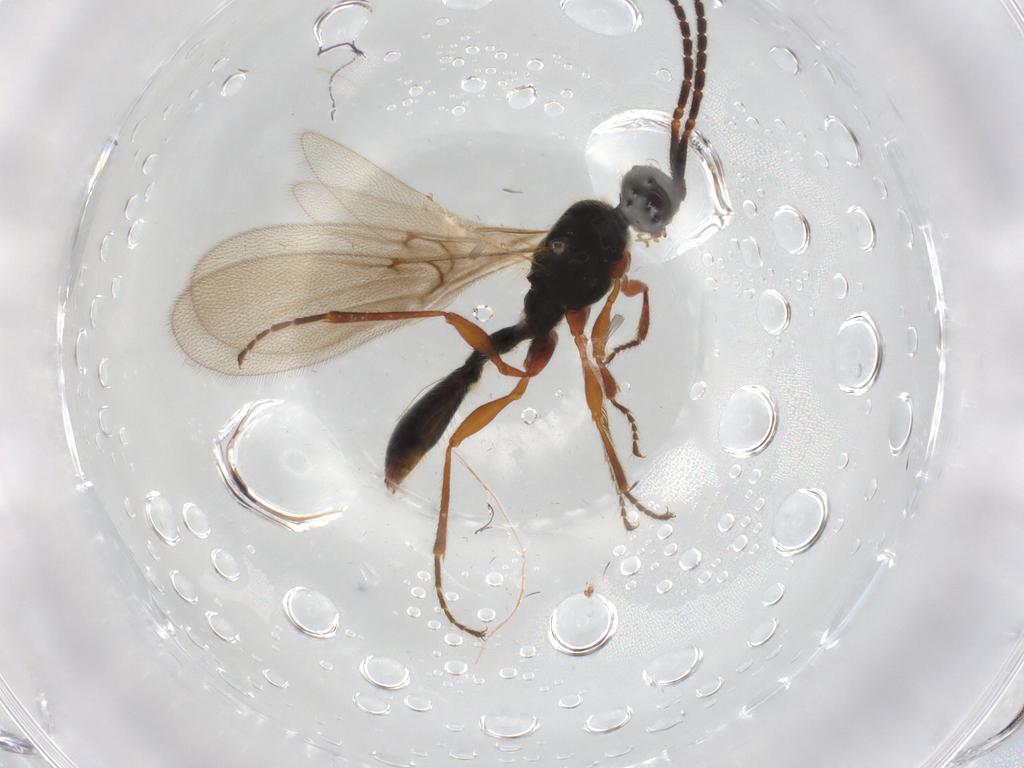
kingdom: Animalia
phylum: Arthropoda
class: Insecta
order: Hymenoptera
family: Diapriidae
